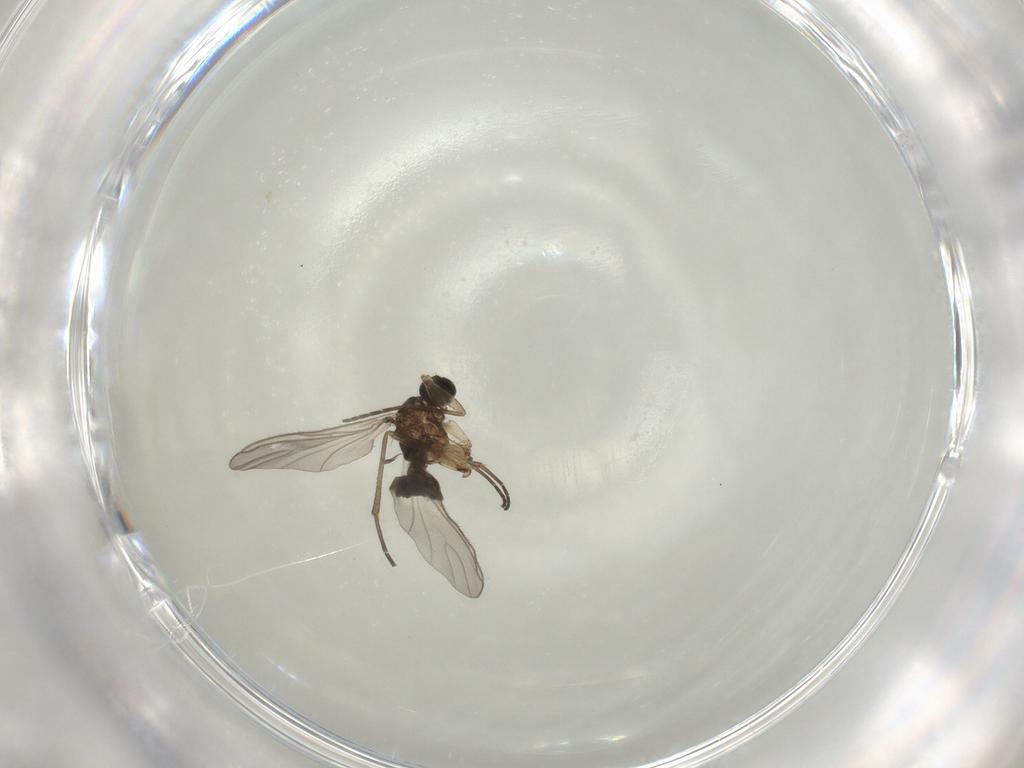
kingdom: Animalia
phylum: Arthropoda
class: Insecta
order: Diptera
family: Sciaridae
